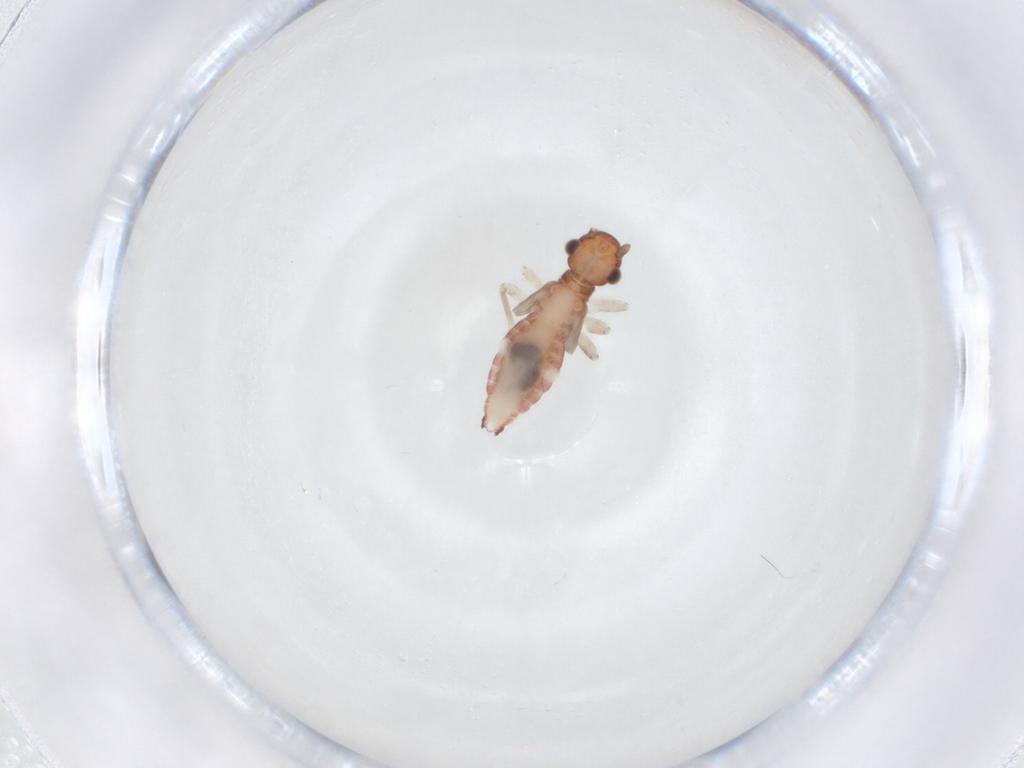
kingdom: Animalia
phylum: Arthropoda
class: Insecta
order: Psocodea
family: Caeciliusidae
